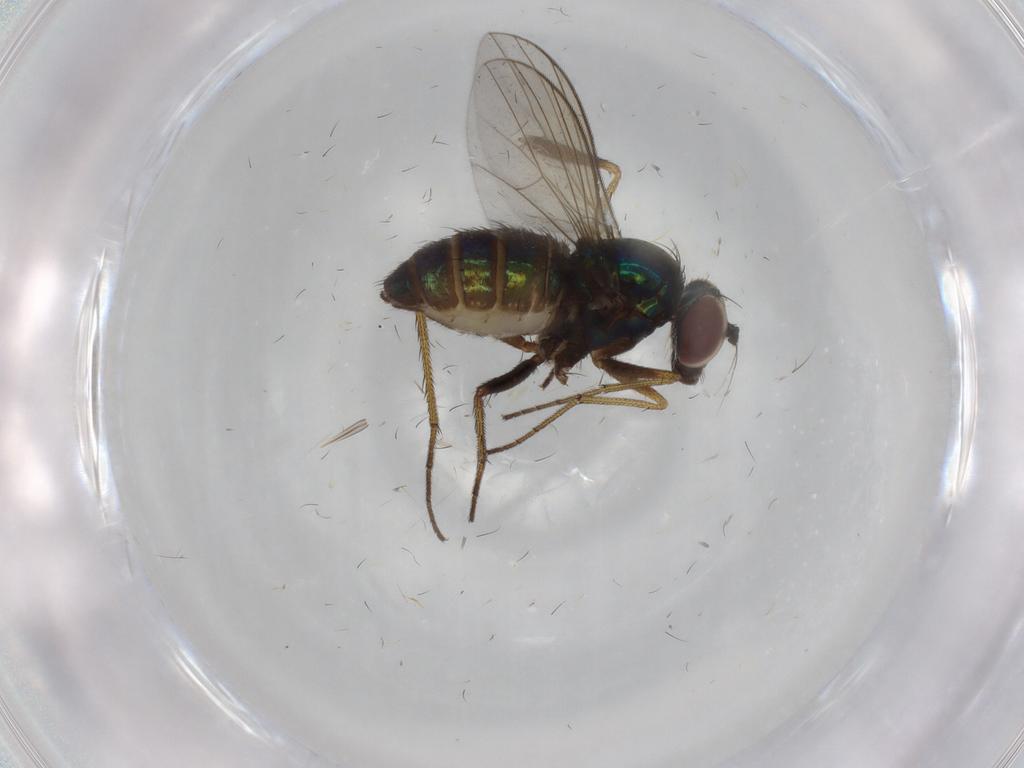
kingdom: Animalia
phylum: Arthropoda
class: Insecta
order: Diptera
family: Dolichopodidae
